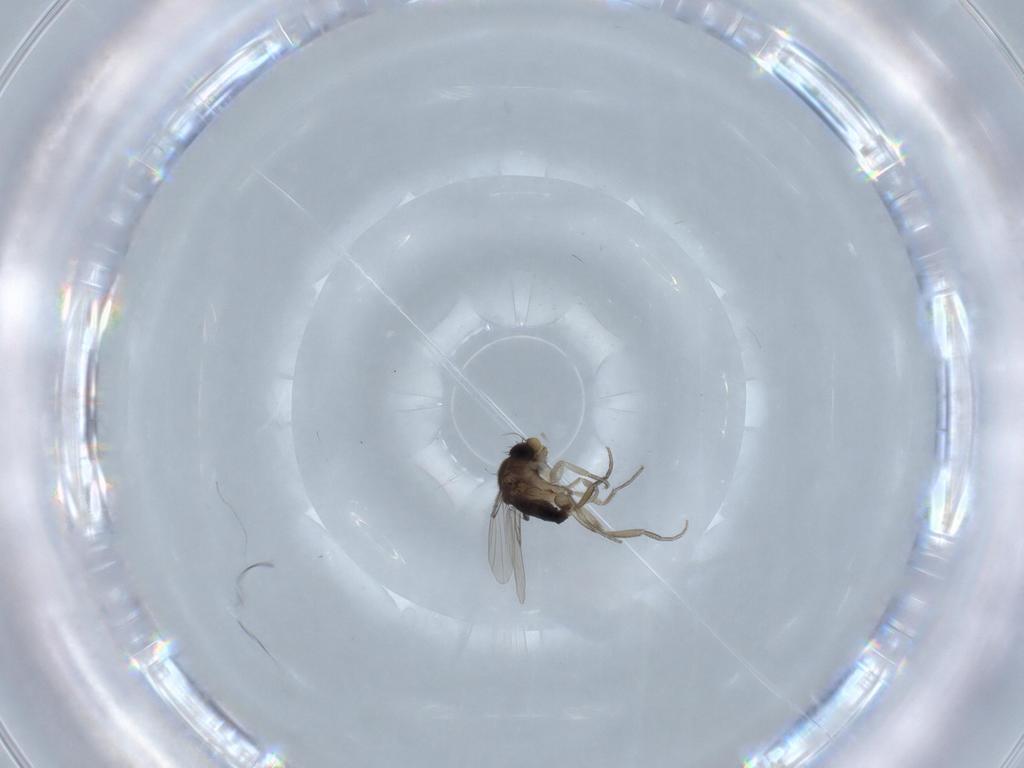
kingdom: Animalia
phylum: Arthropoda
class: Insecta
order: Diptera
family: Phoridae
